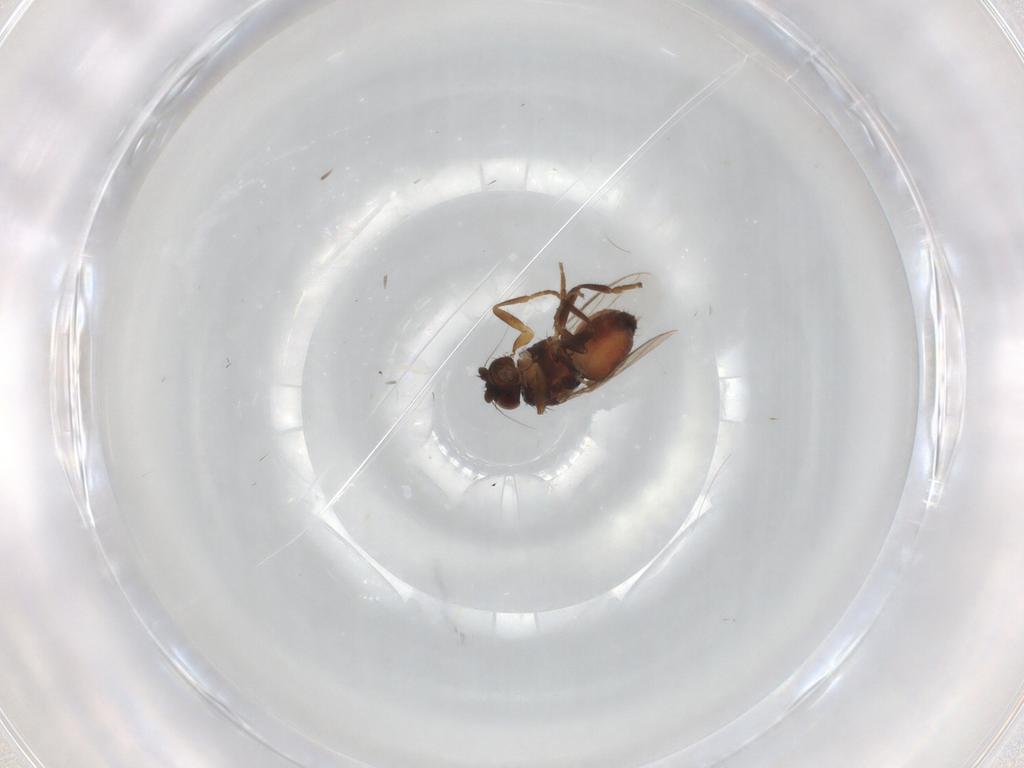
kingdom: Animalia
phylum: Arthropoda
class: Insecta
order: Diptera
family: Sphaeroceridae
